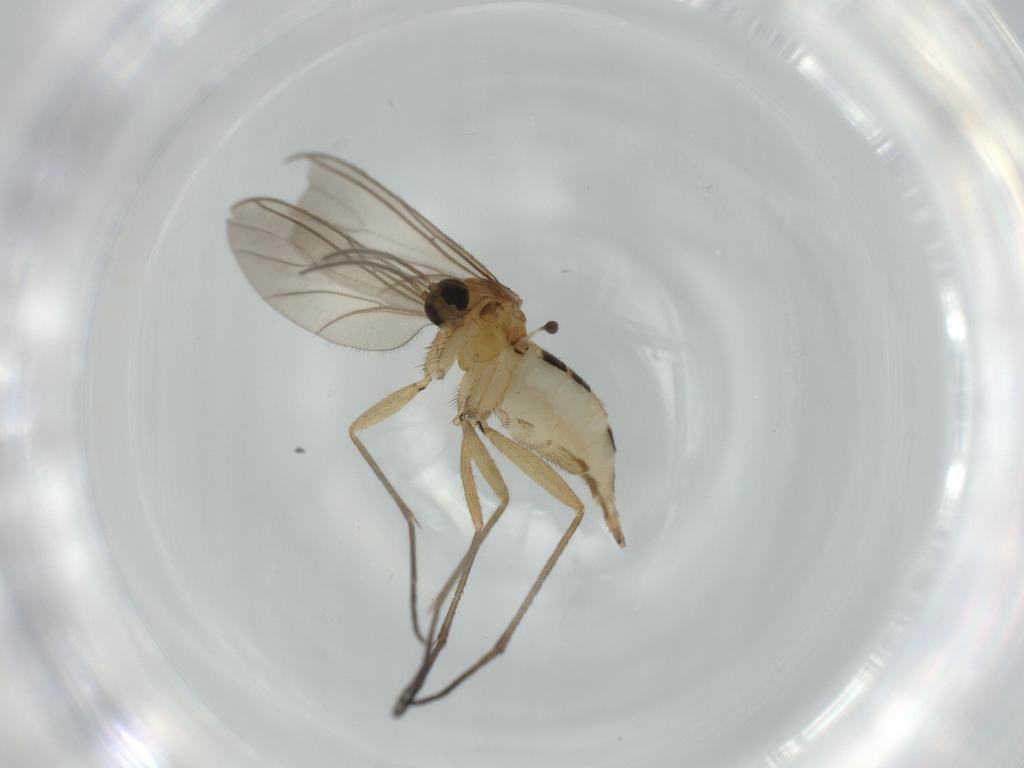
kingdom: Animalia
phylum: Arthropoda
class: Insecta
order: Diptera
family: Sciaridae
